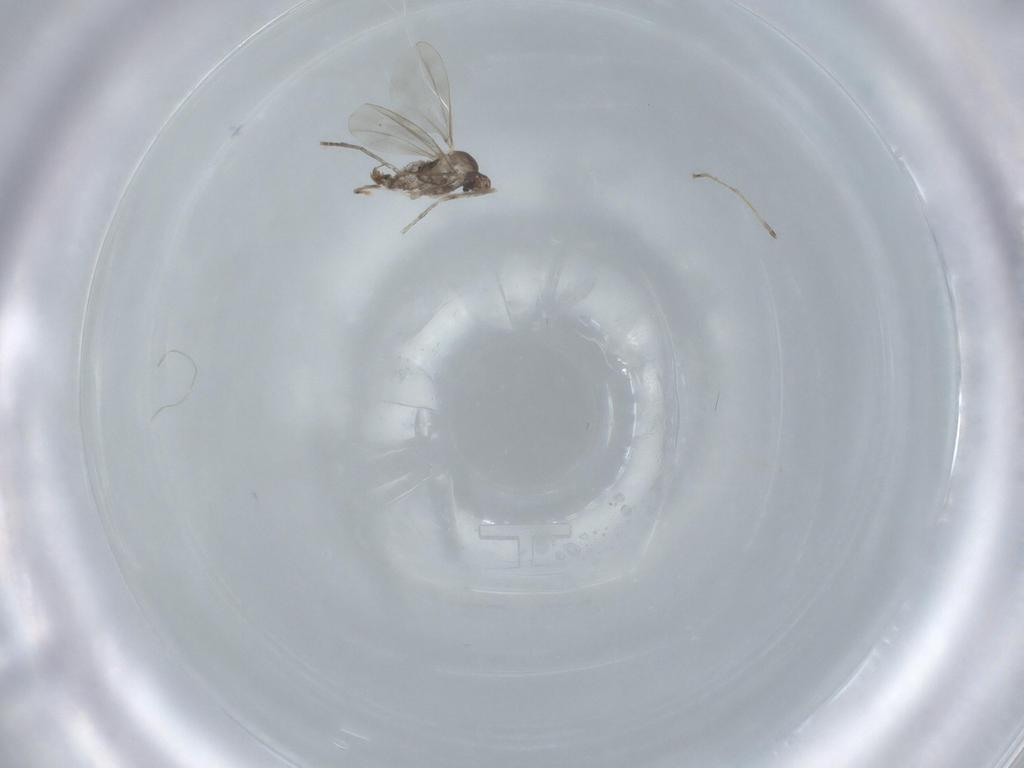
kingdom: Animalia
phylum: Arthropoda
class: Insecta
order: Diptera
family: Cecidomyiidae
